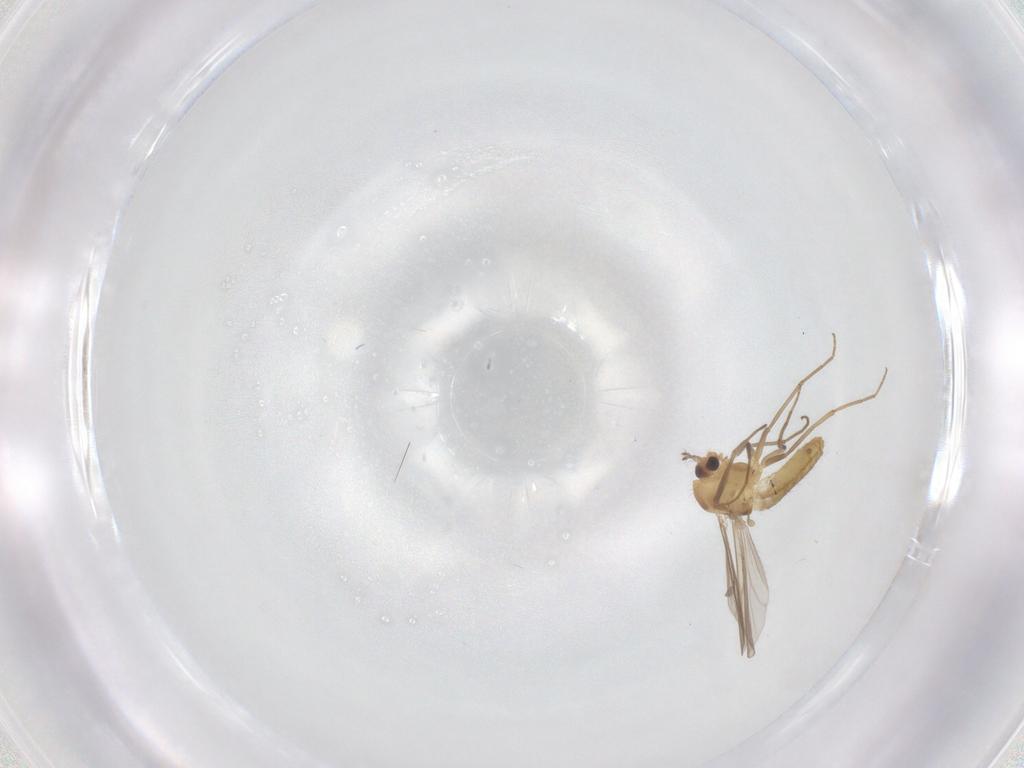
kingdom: Animalia
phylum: Arthropoda
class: Insecta
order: Diptera
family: Chironomidae
